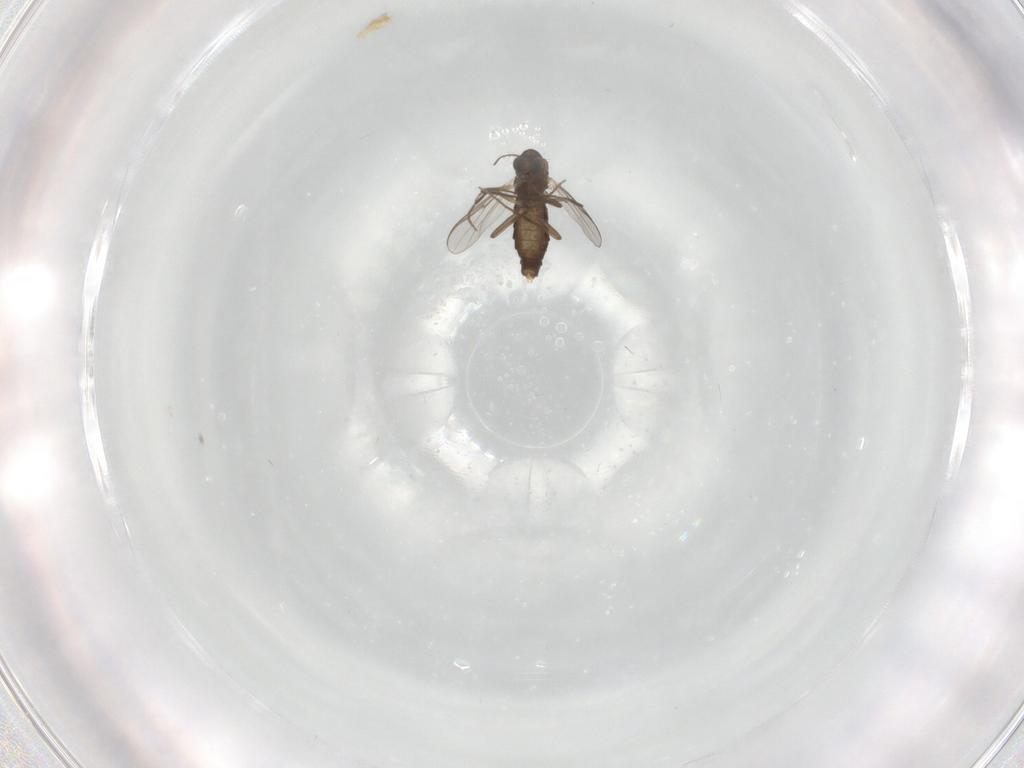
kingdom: Animalia
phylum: Arthropoda
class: Insecta
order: Diptera
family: Chironomidae
